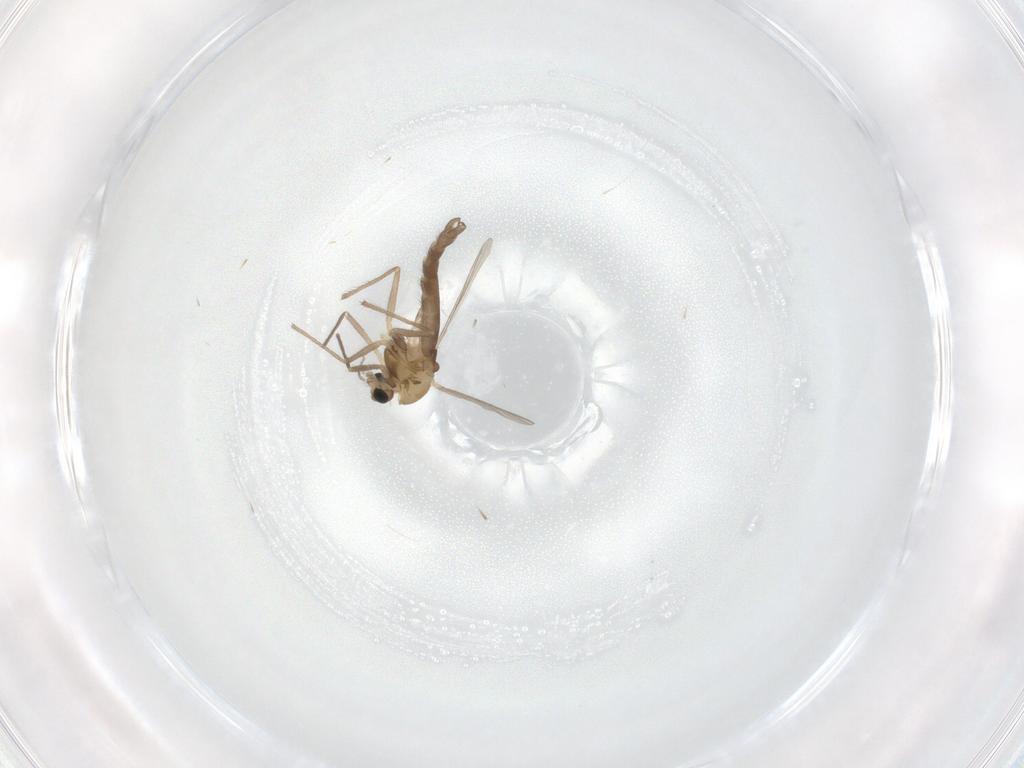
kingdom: Animalia
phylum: Arthropoda
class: Insecta
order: Diptera
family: Chironomidae
